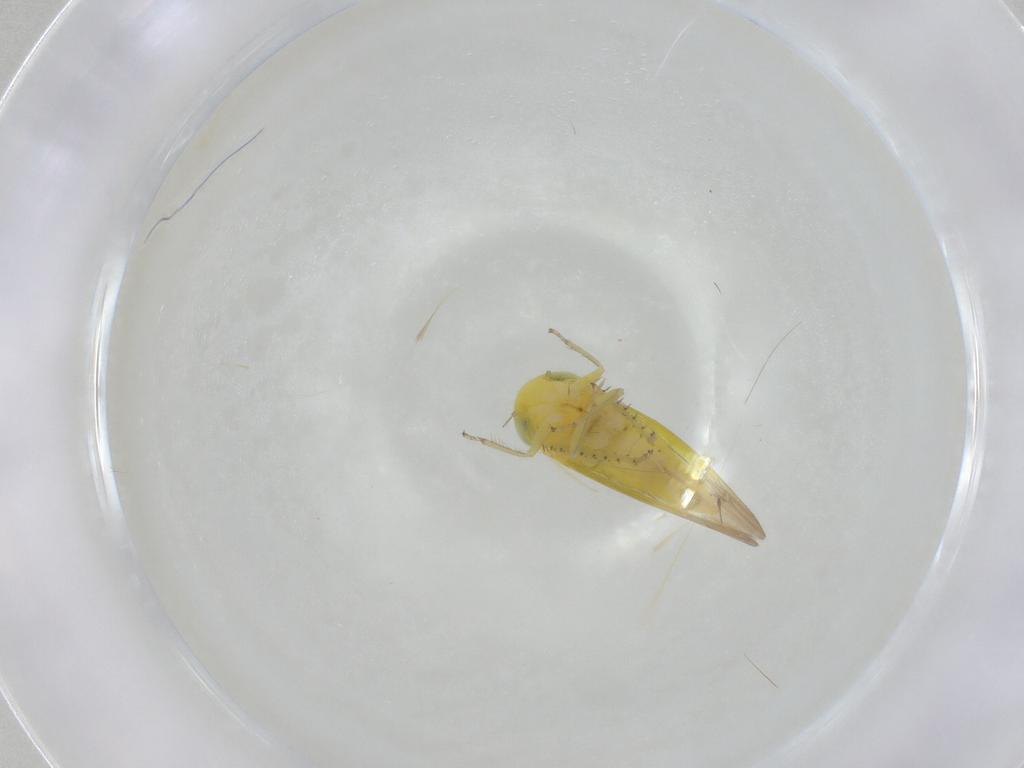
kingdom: Animalia
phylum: Arthropoda
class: Insecta
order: Hemiptera
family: Cicadellidae
